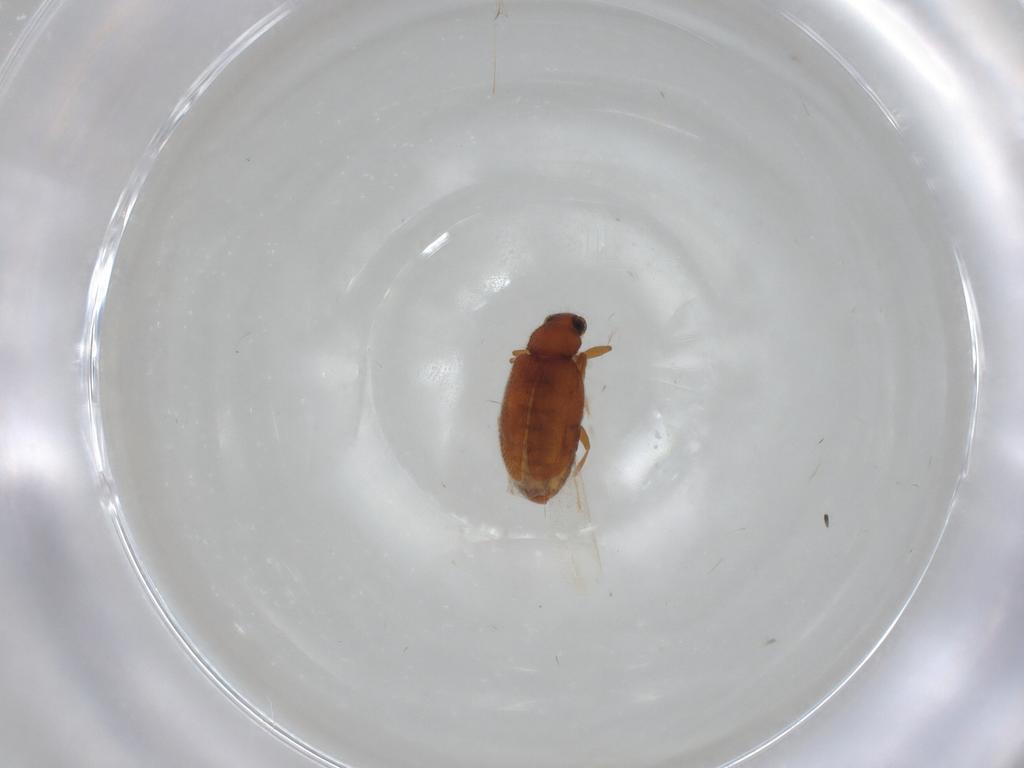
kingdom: Animalia
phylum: Arthropoda
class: Insecta
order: Coleoptera
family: Latridiidae
